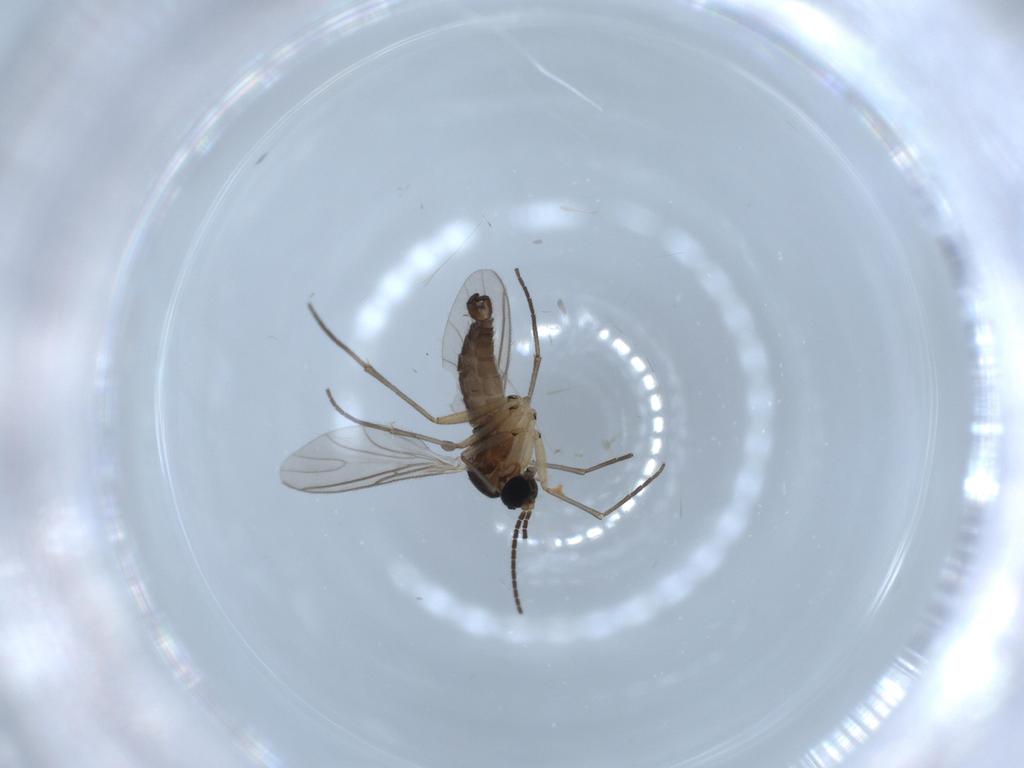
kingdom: Animalia
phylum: Arthropoda
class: Insecta
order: Diptera
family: Sciaridae
